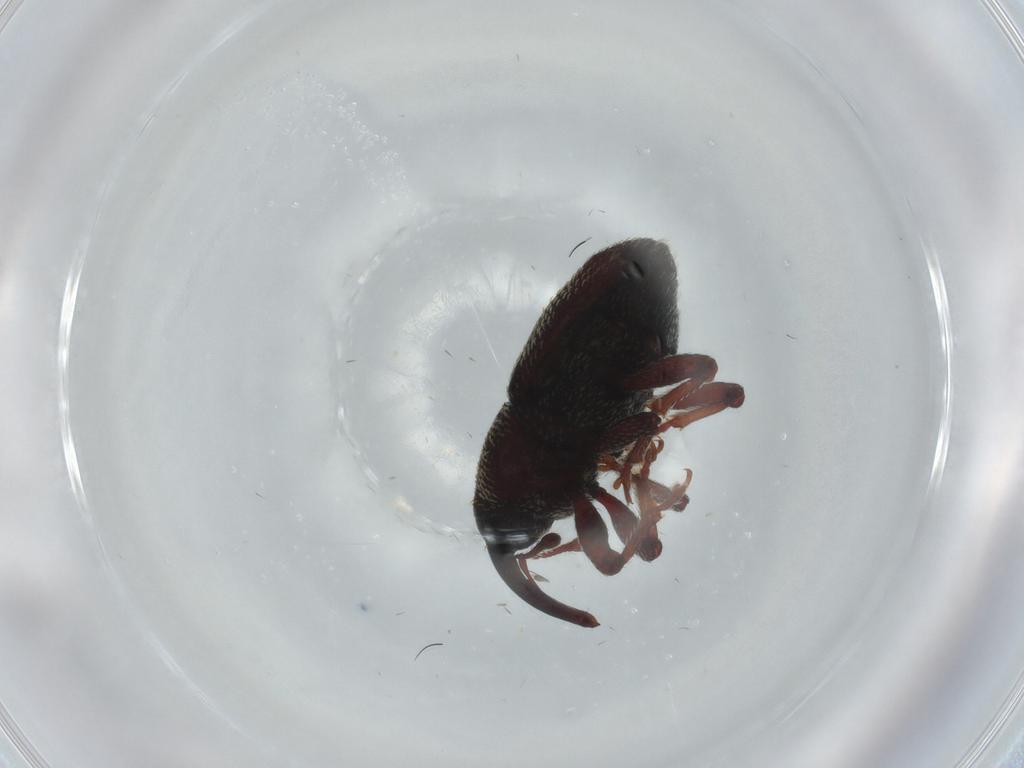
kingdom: Animalia
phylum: Arthropoda
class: Insecta
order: Coleoptera
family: Curculionidae
